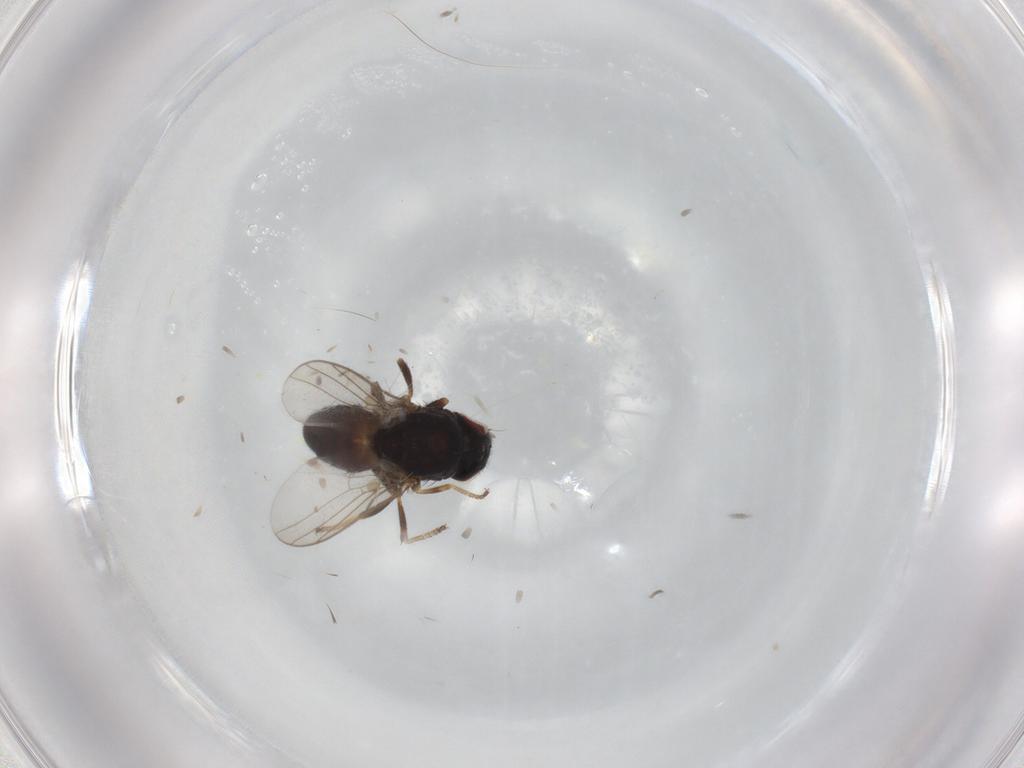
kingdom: Animalia
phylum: Arthropoda
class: Insecta
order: Diptera
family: Chloropidae
